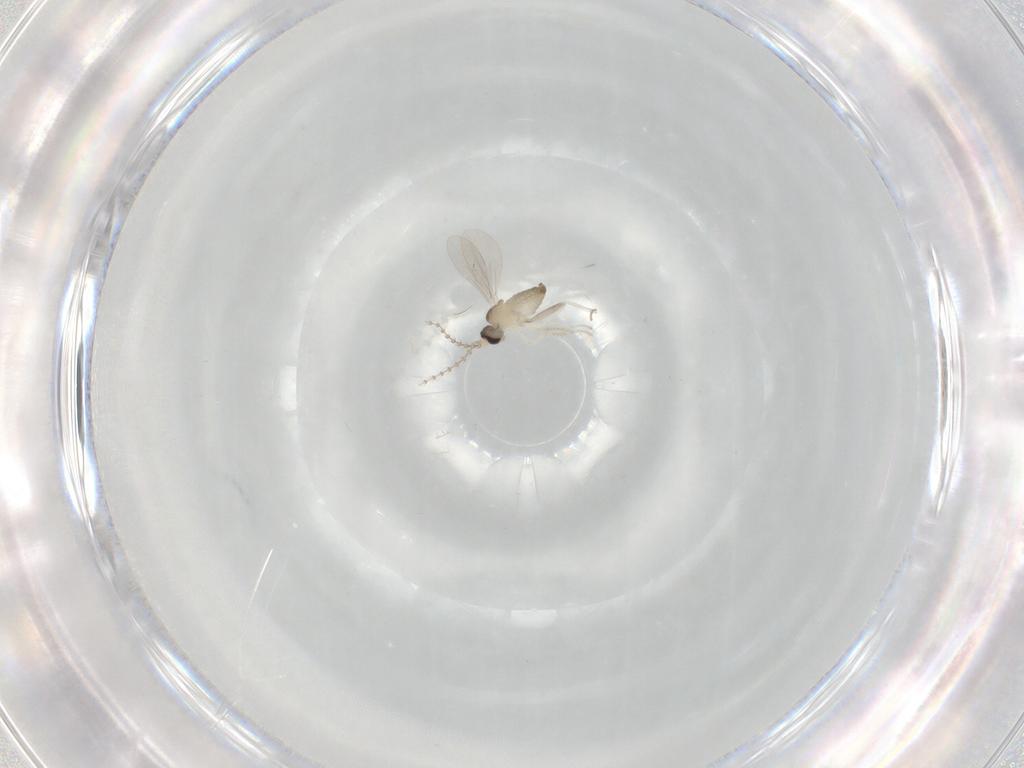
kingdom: Animalia
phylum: Arthropoda
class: Insecta
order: Diptera
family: Cecidomyiidae
